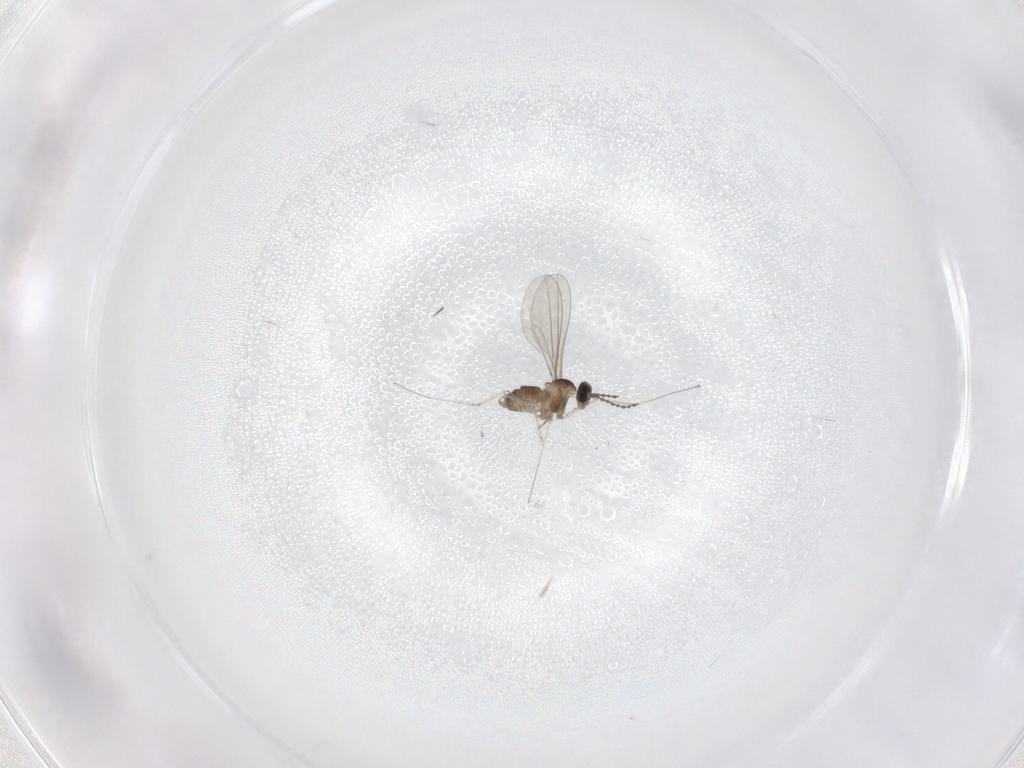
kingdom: Animalia
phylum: Arthropoda
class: Insecta
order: Diptera
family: Cecidomyiidae
